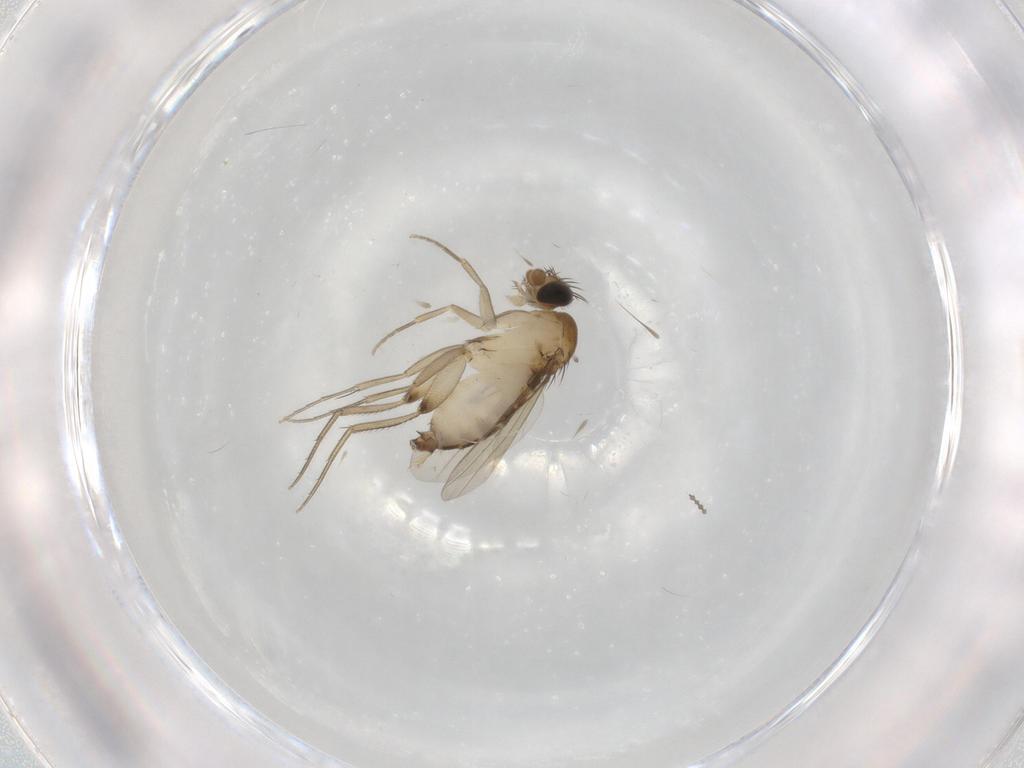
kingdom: Animalia
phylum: Arthropoda
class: Insecta
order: Diptera
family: Phoridae
